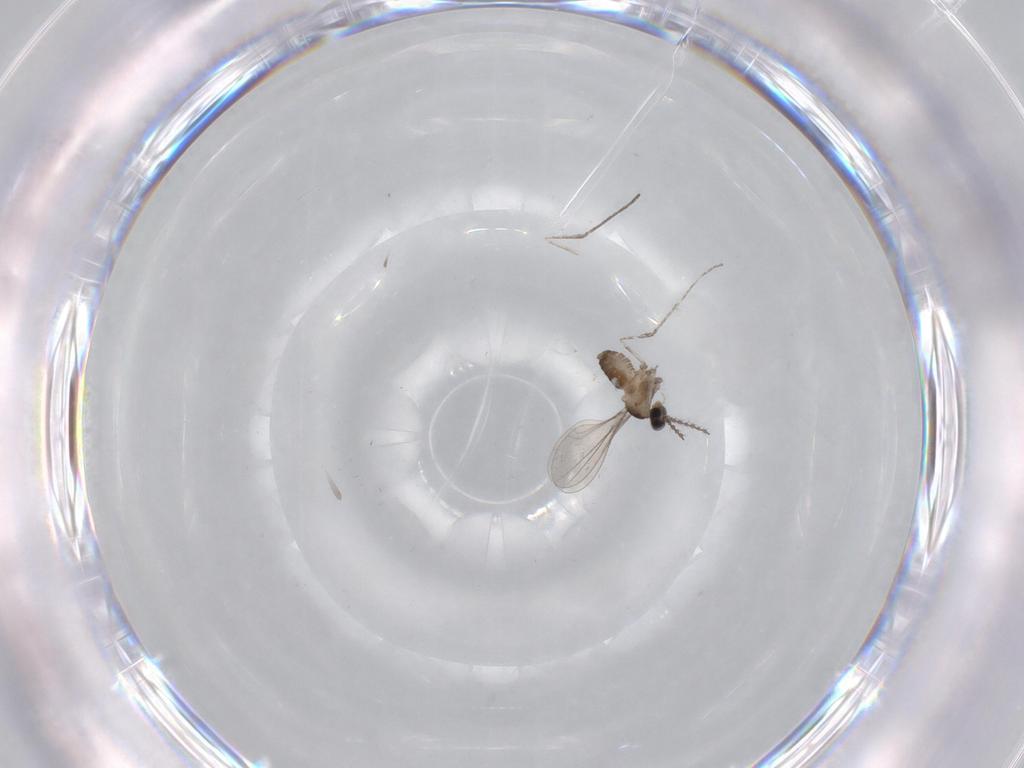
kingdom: Animalia
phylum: Arthropoda
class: Insecta
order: Diptera
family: Cecidomyiidae
